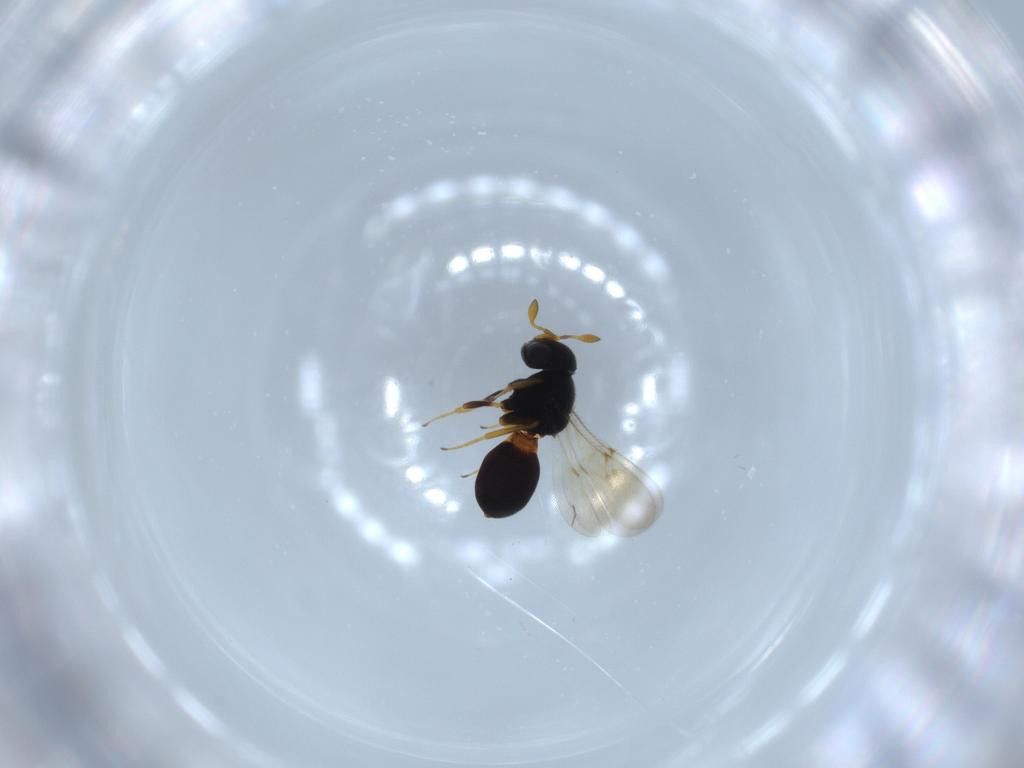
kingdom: Animalia
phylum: Arthropoda
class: Insecta
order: Hymenoptera
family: Scelionidae
